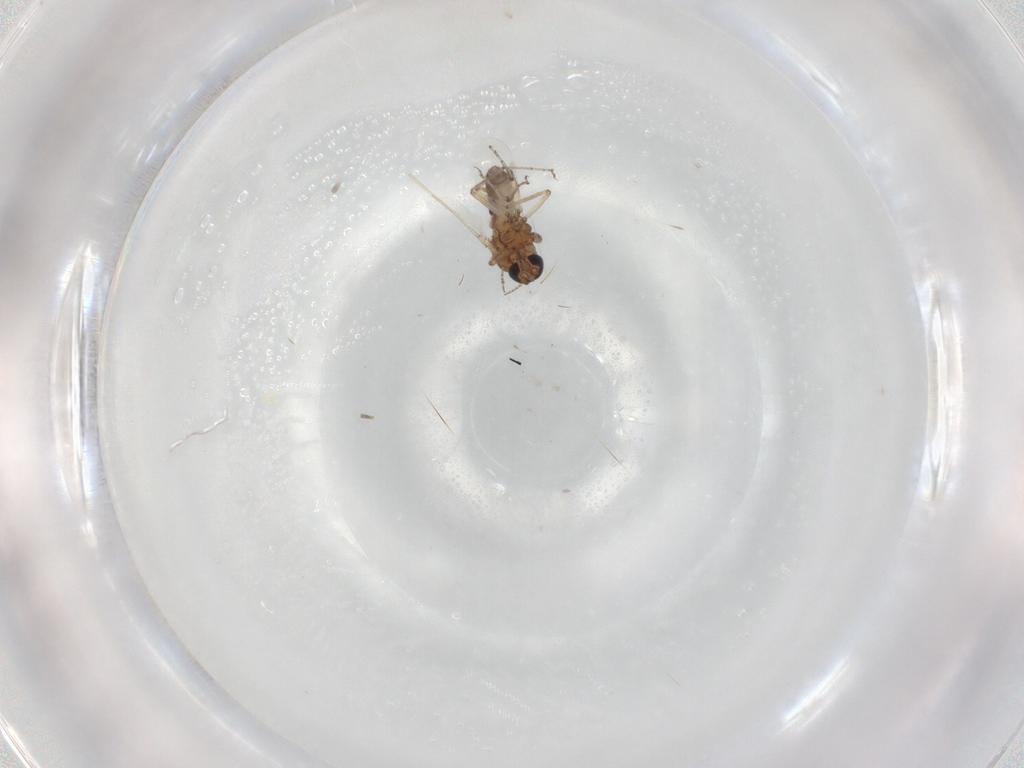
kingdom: Animalia
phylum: Arthropoda
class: Insecta
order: Diptera
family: Ceratopogonidae
